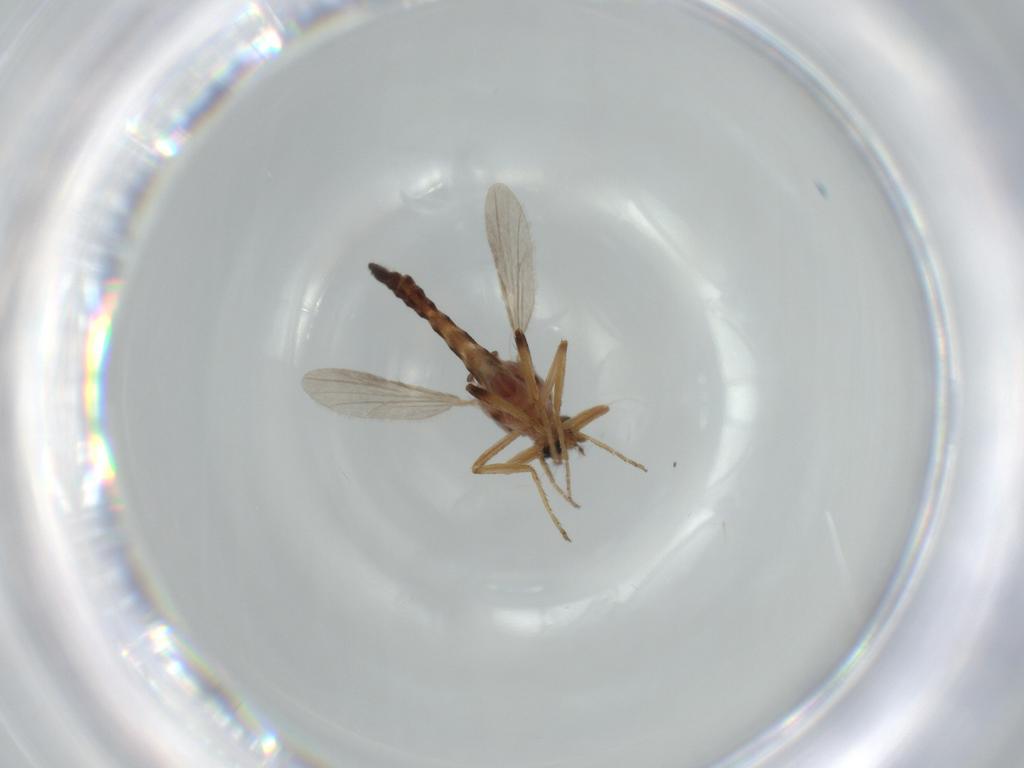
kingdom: Animalia
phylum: Arthropoda
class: Insecta
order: Diptera
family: Ceratopogonidae
